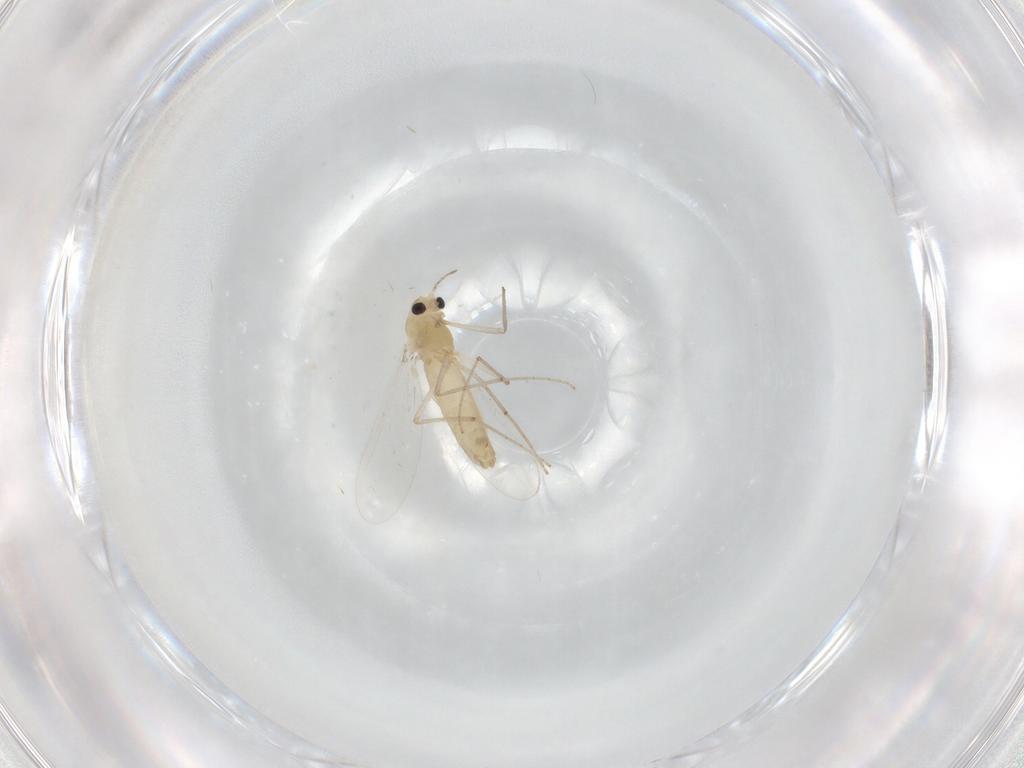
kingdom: Animalia
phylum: Arthropoda
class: Insecta
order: Diptera
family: Chironomidae
